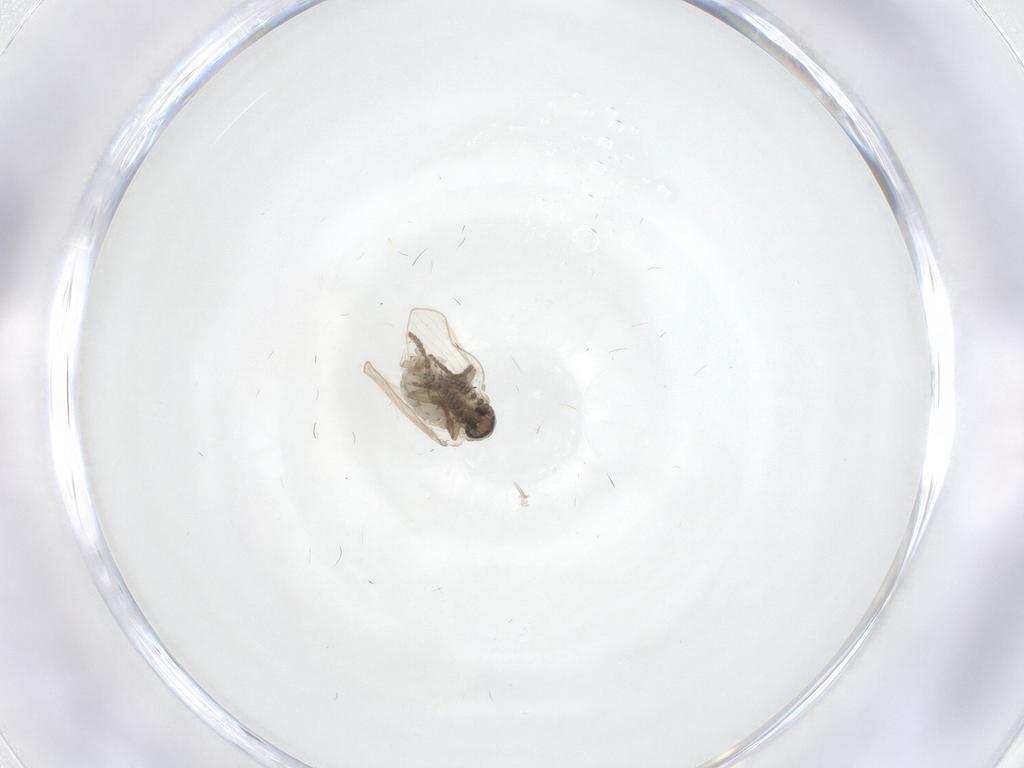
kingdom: Animalia
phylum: Arthropoda
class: Insecta
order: Diptera
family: Psychodidae
